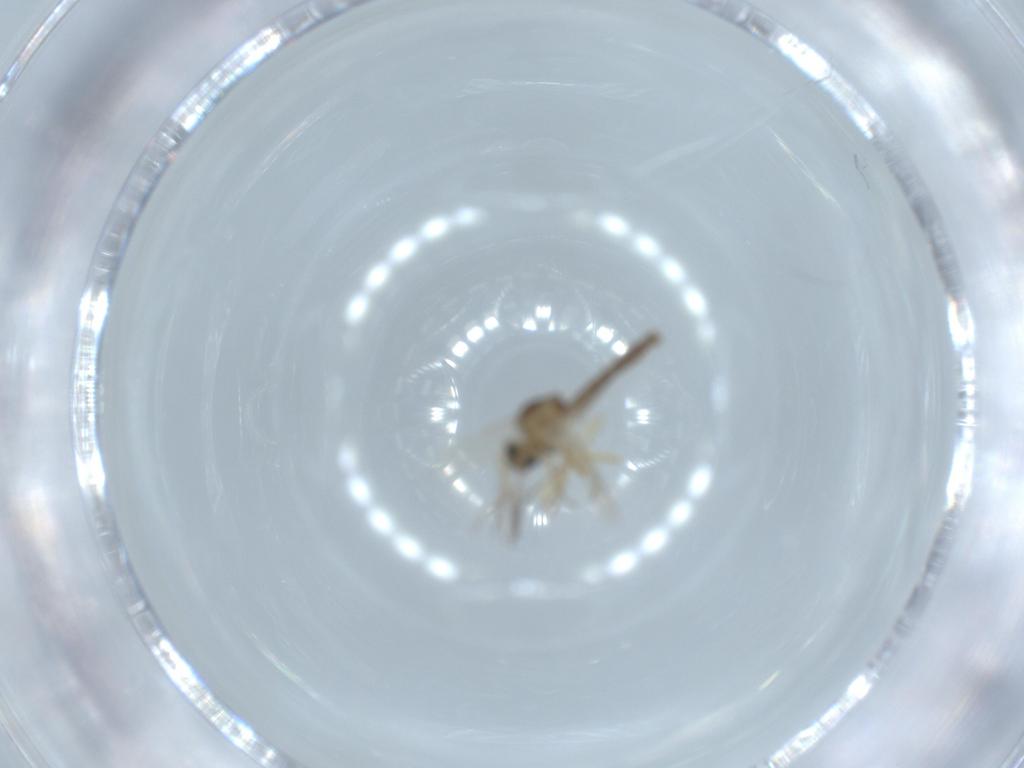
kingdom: Animalia
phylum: Arthropoda
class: Insecta
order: Diptera
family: Ceratopogonidae
